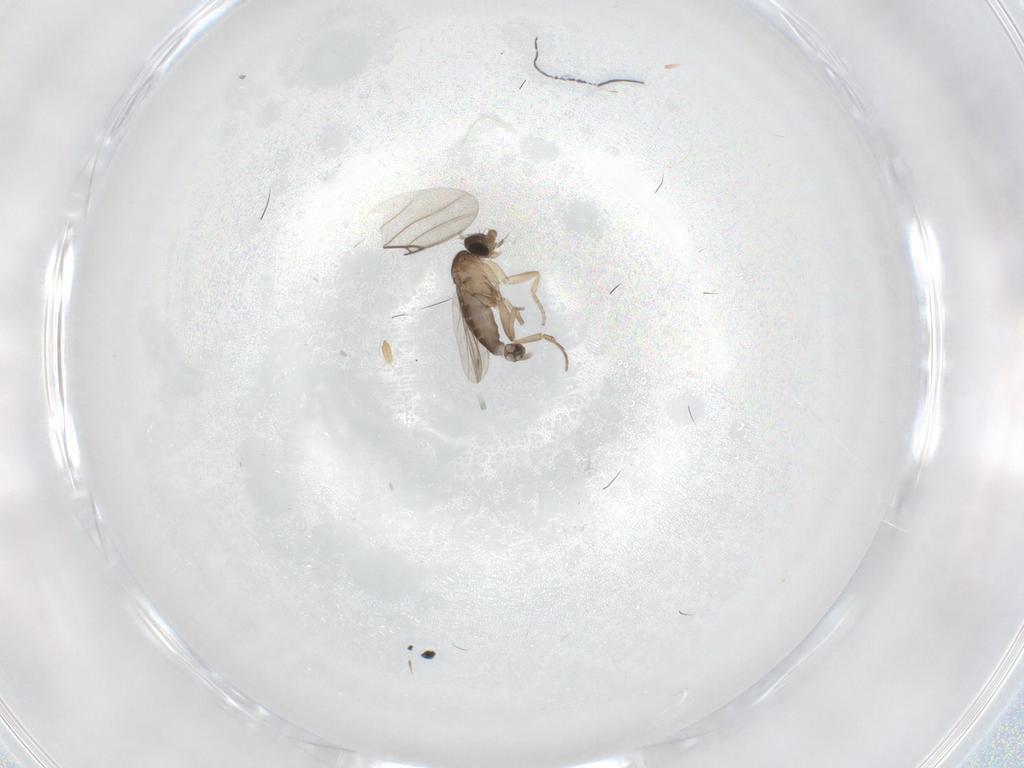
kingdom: Animalia
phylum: Arthropoda
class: Insecta
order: Diptera
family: Phoridae
